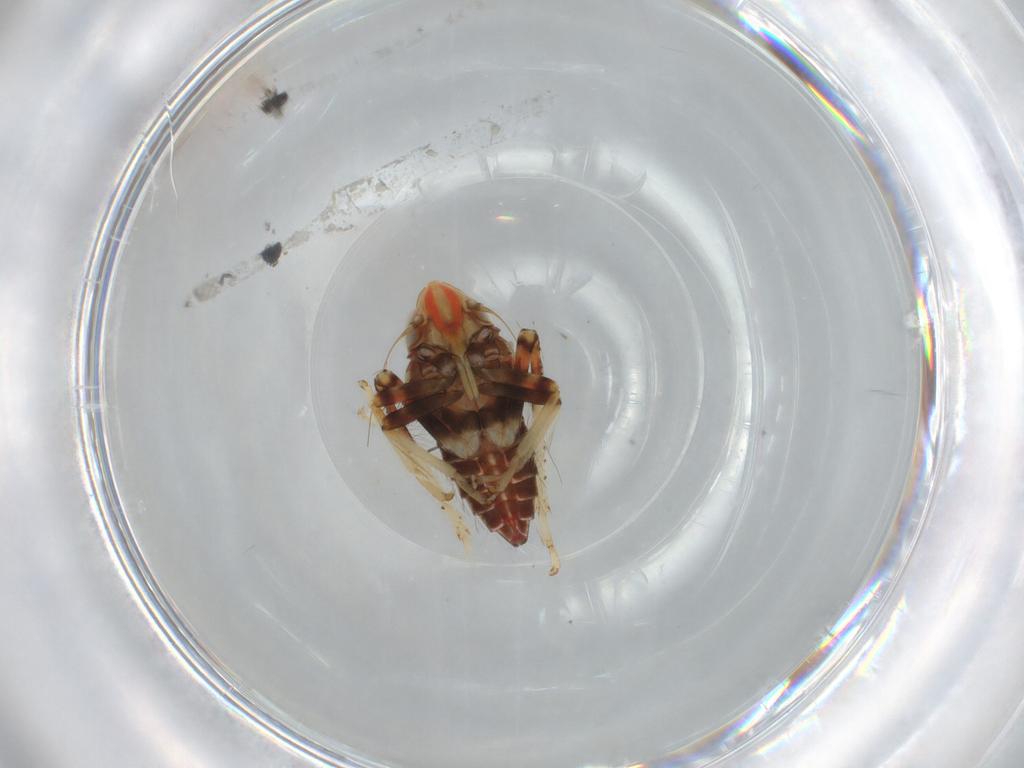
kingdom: Animalia
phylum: Arthropoda
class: Insecta
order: Hemiptera
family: Cicadellidae
